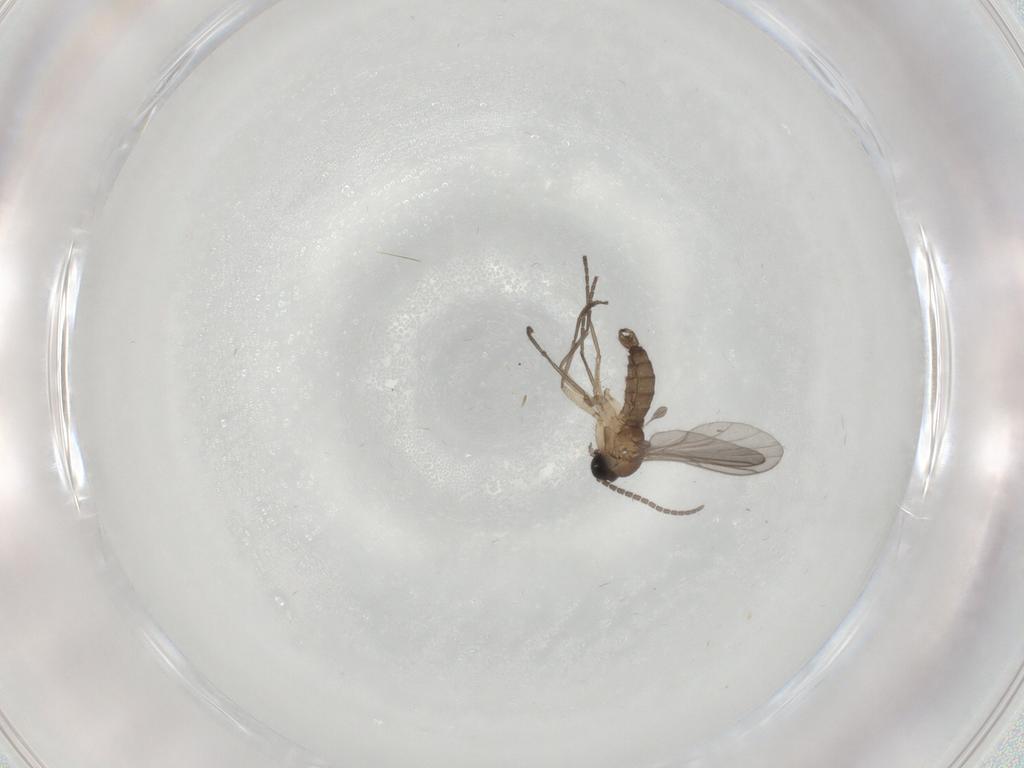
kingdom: Animalia
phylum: Arthropoda
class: Insecta
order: Diptera
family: Sciaridae
